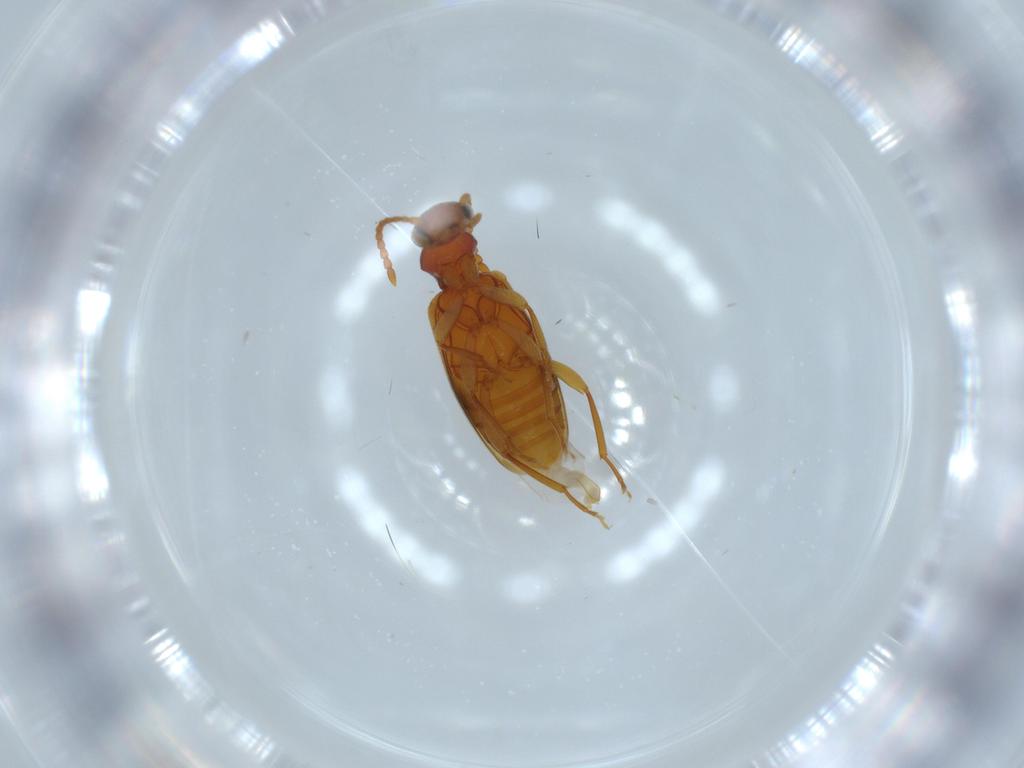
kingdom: Animalia
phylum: Arthropoda
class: Insecta
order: Coleoptera
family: Anthicidae
